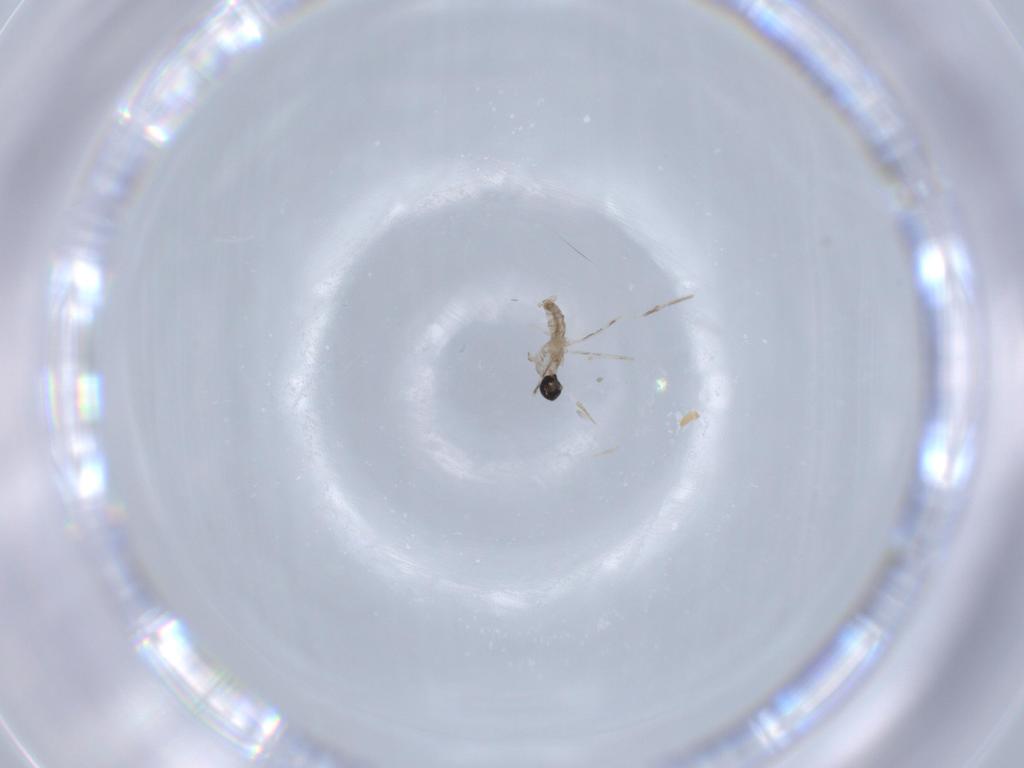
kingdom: Animalia
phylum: Arthropoda
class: Insecta
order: Diptera
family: Cecidomyiidae
